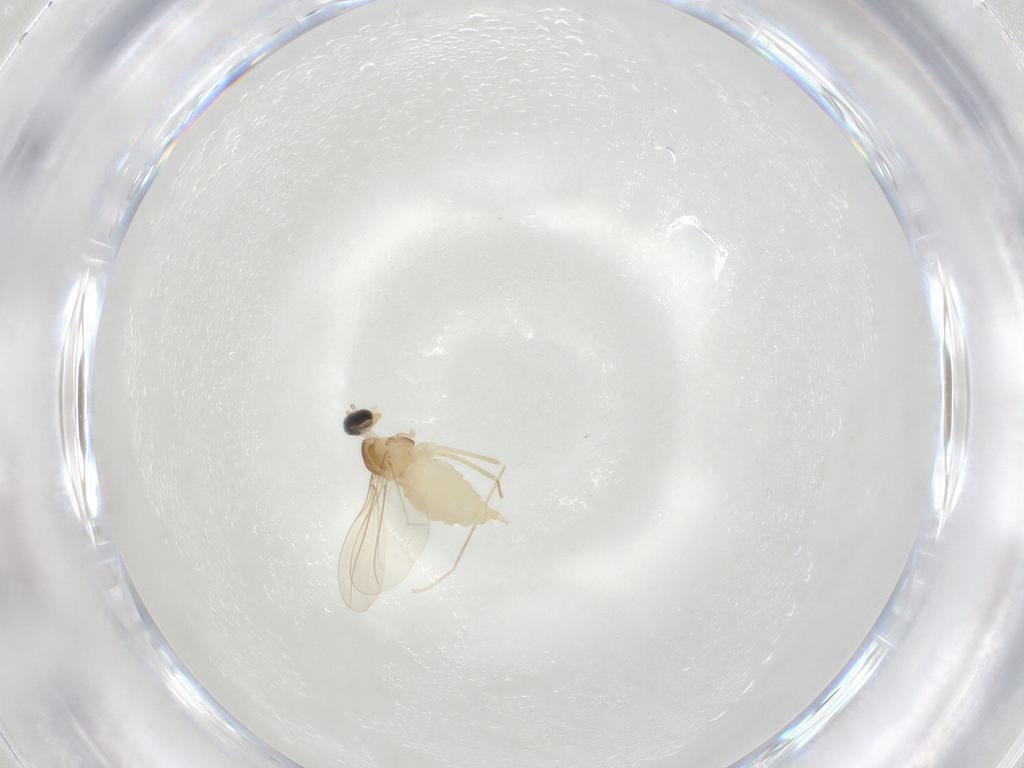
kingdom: Animalia
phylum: Arthropoda
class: Insecta
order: Diptera
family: Cecidomyiidae
